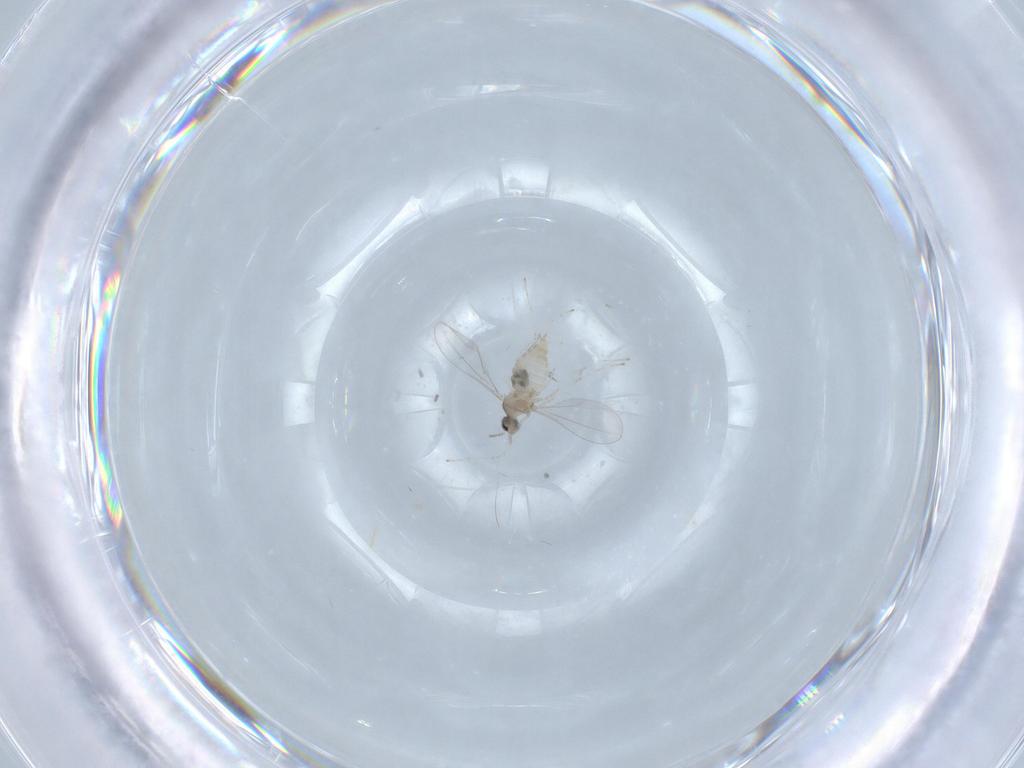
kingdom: Animalia
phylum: Arthropoda
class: Insecta
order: Diptera
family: Cecidomyiidae
